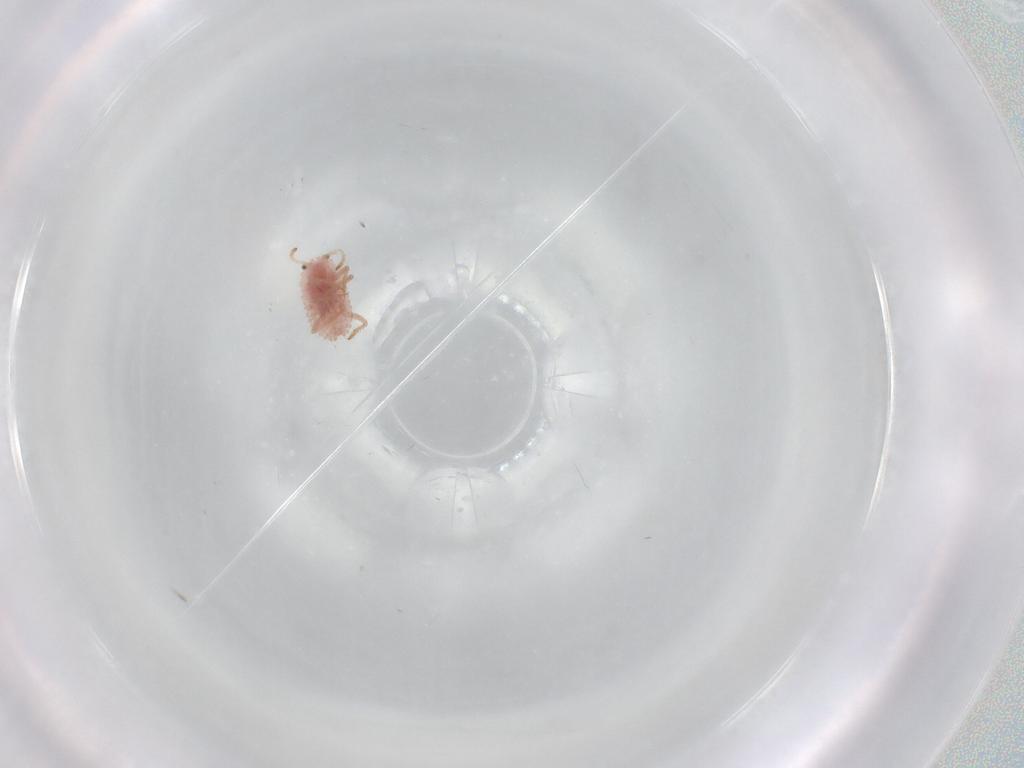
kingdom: Animalia
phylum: Arthropoda
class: Insecta
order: Hemiptera
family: Coccoidea_incertae_sedis
